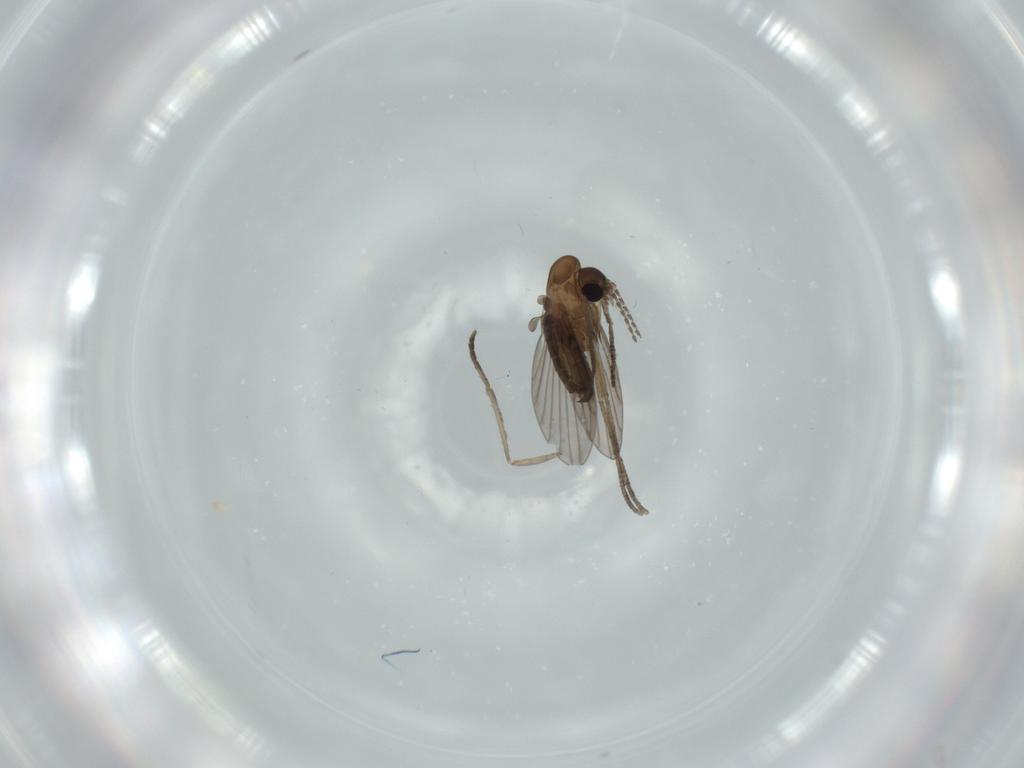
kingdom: Animalia
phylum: Arthropoda
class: Insecta
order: Diptera
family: Psychodidae
